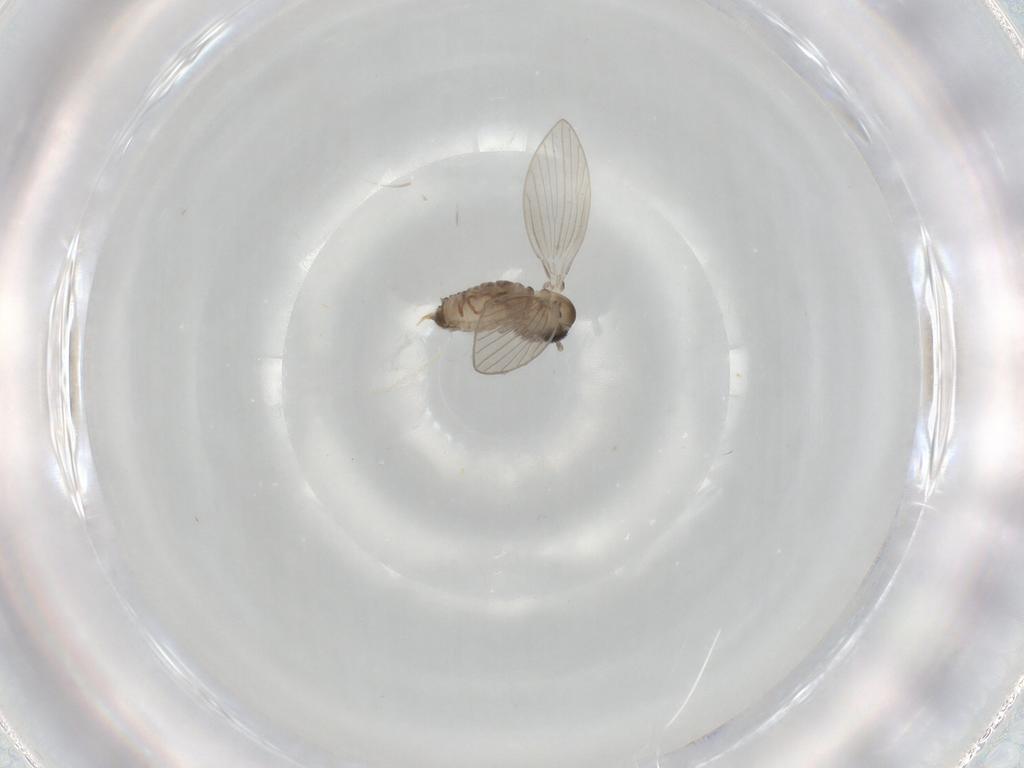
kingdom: Animalia
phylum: Arthropoda
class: Insecta
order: Diptera
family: Psychodidae
